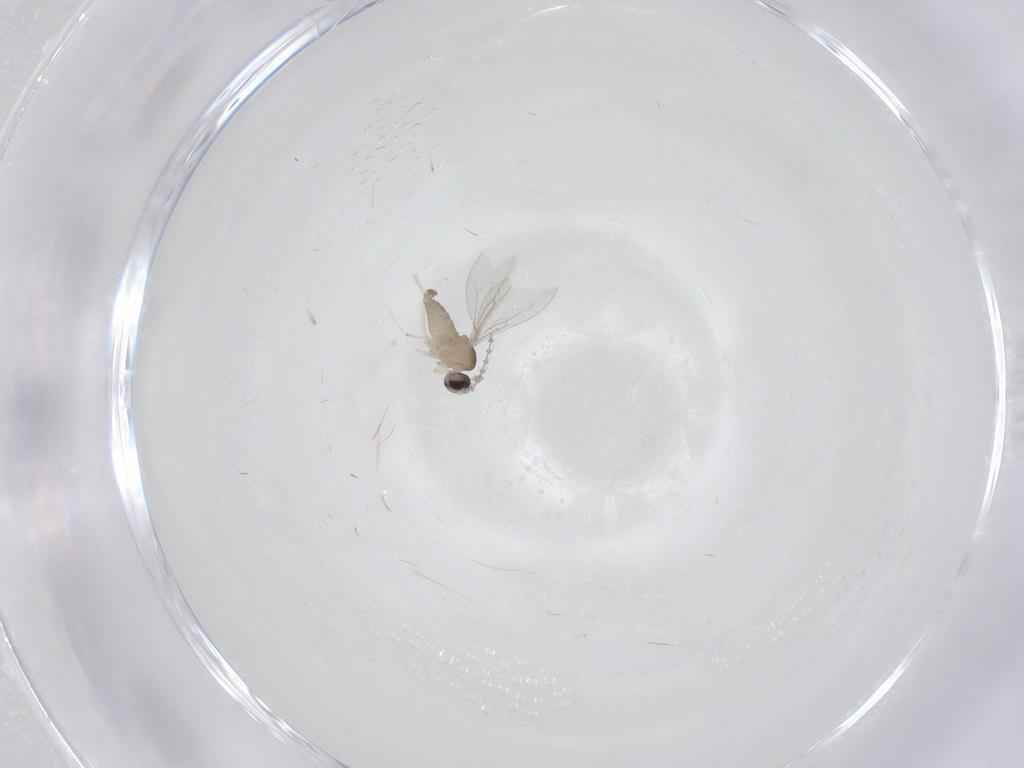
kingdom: Animalia
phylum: Arthropoda
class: Insecta
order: Diptera
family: Cecidomyiidae
